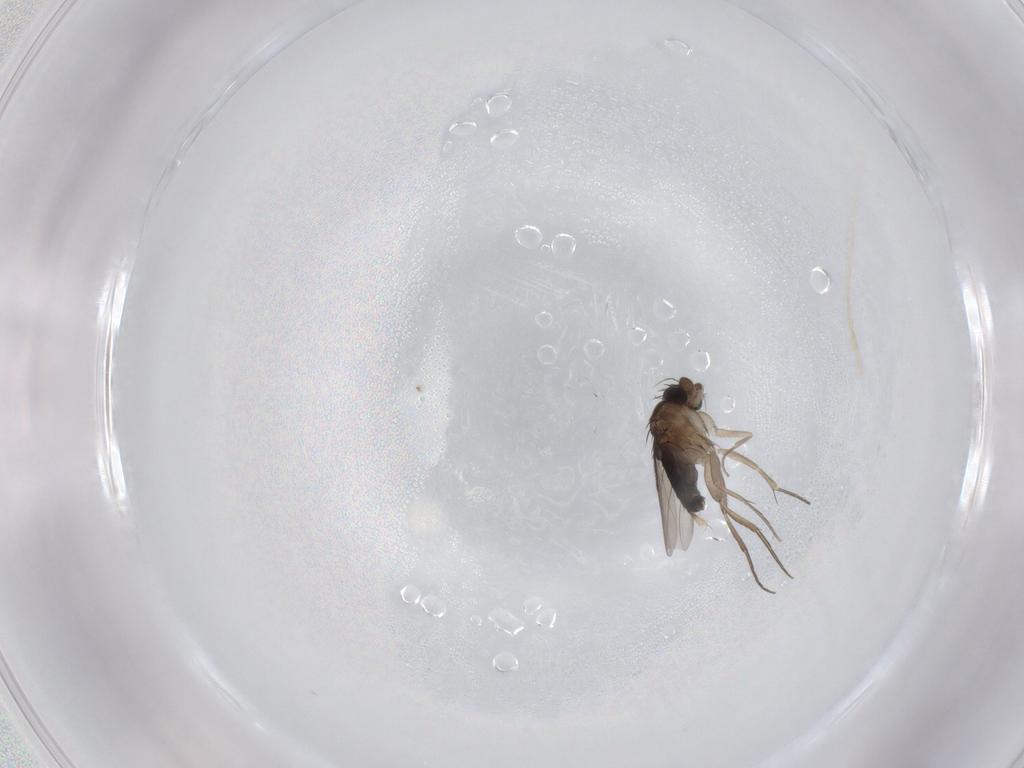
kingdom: Animalia
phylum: Arthropoda
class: Insecta
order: Diptera
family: Phoridae
